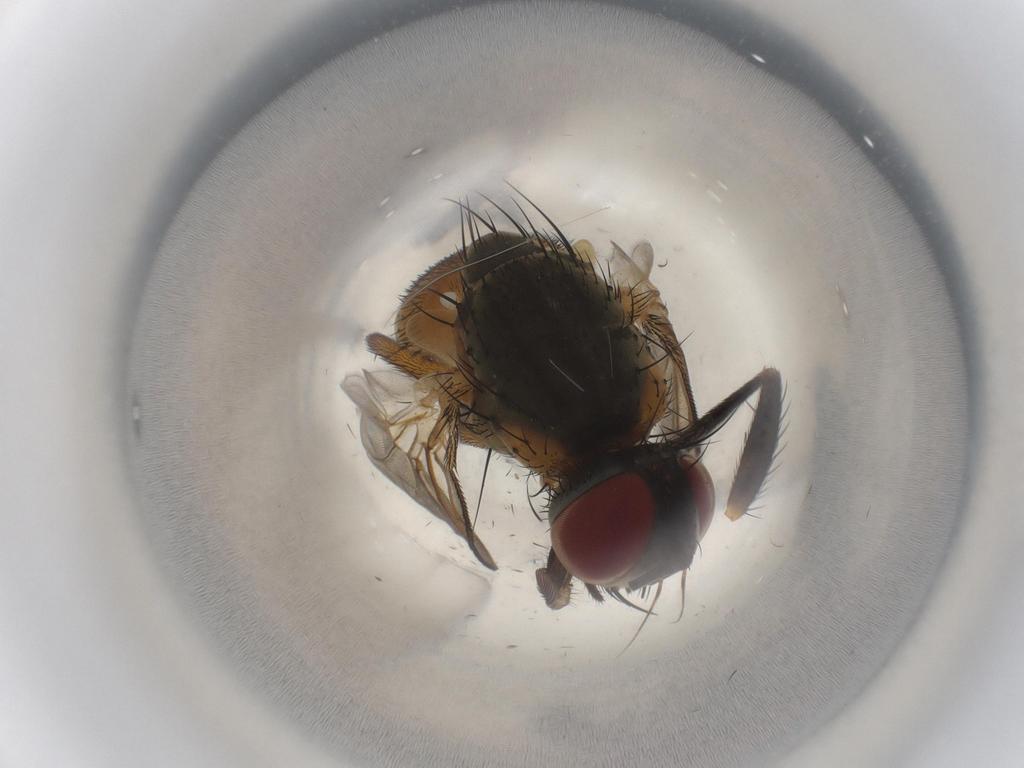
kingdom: Animalia
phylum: Arthropoda
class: Insecta
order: Diptera
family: Muscidae
